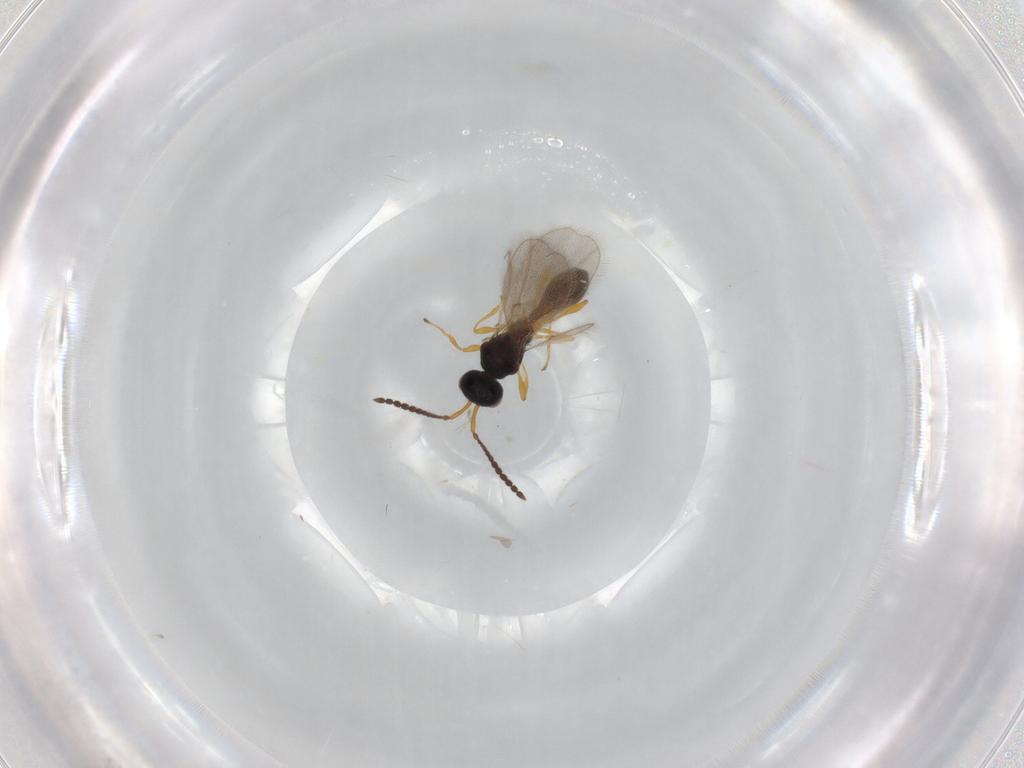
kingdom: Animalia
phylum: Arthropoda
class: Insecta
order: Hymenoptera
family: Diapriidae
